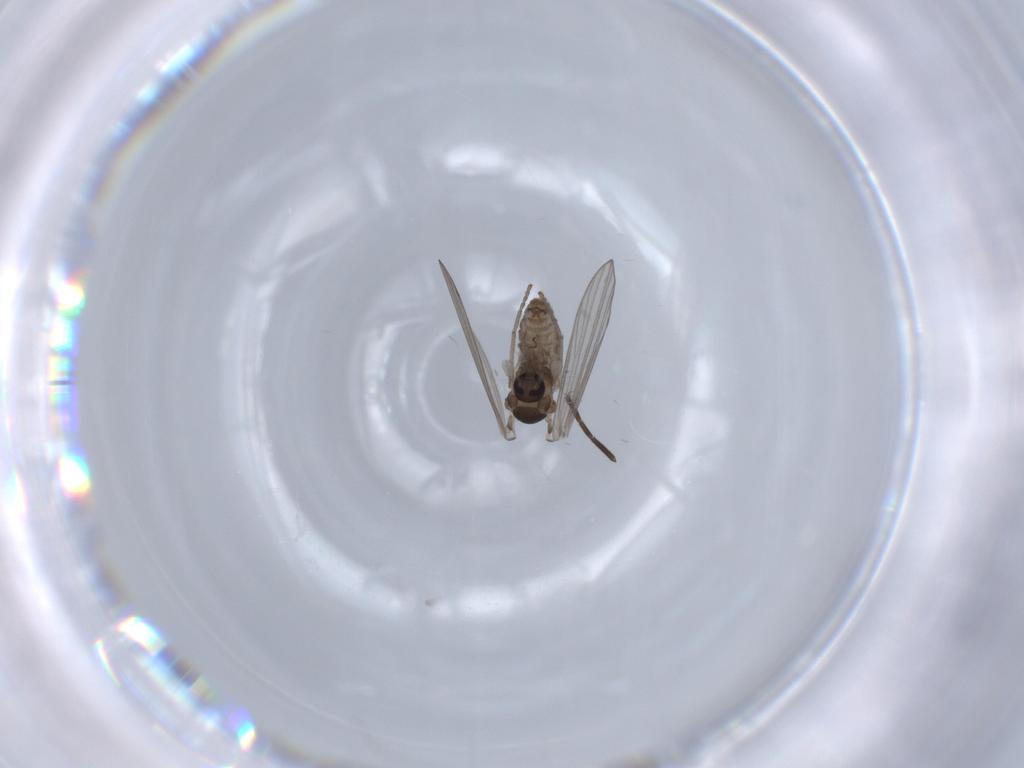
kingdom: Animalia
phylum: Arthropoda
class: Insecta
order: Diptera
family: Psychodidae
